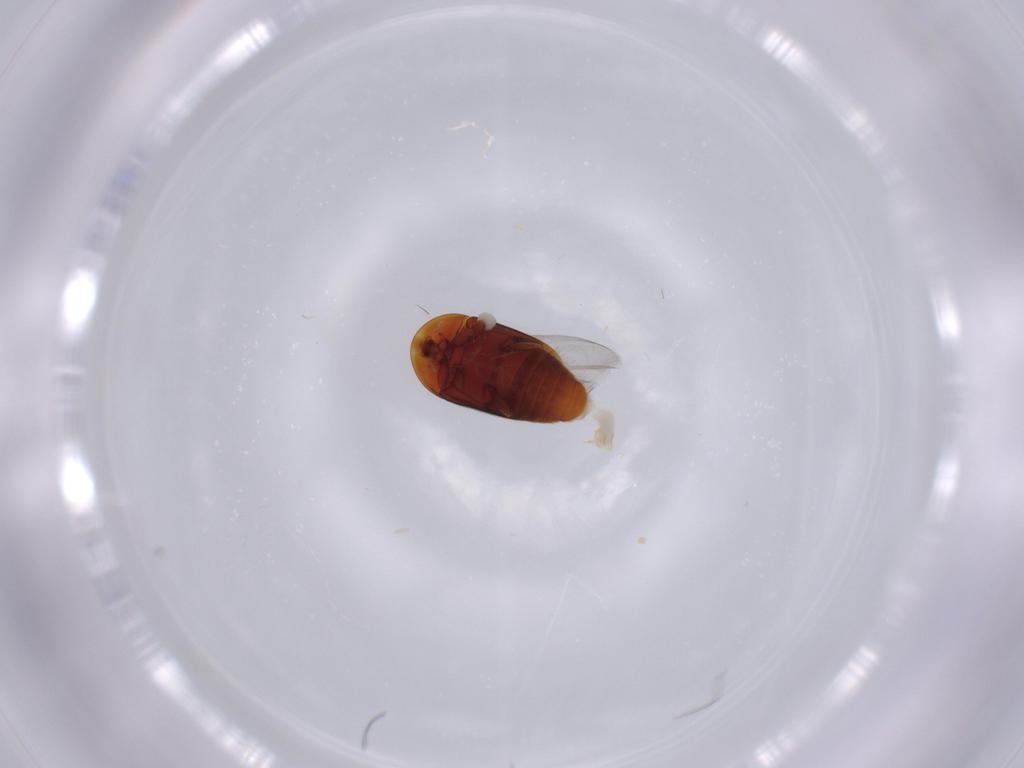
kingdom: Animalia
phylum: Arthropoda
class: Insecta
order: Coleoptera
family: Corylophidae
